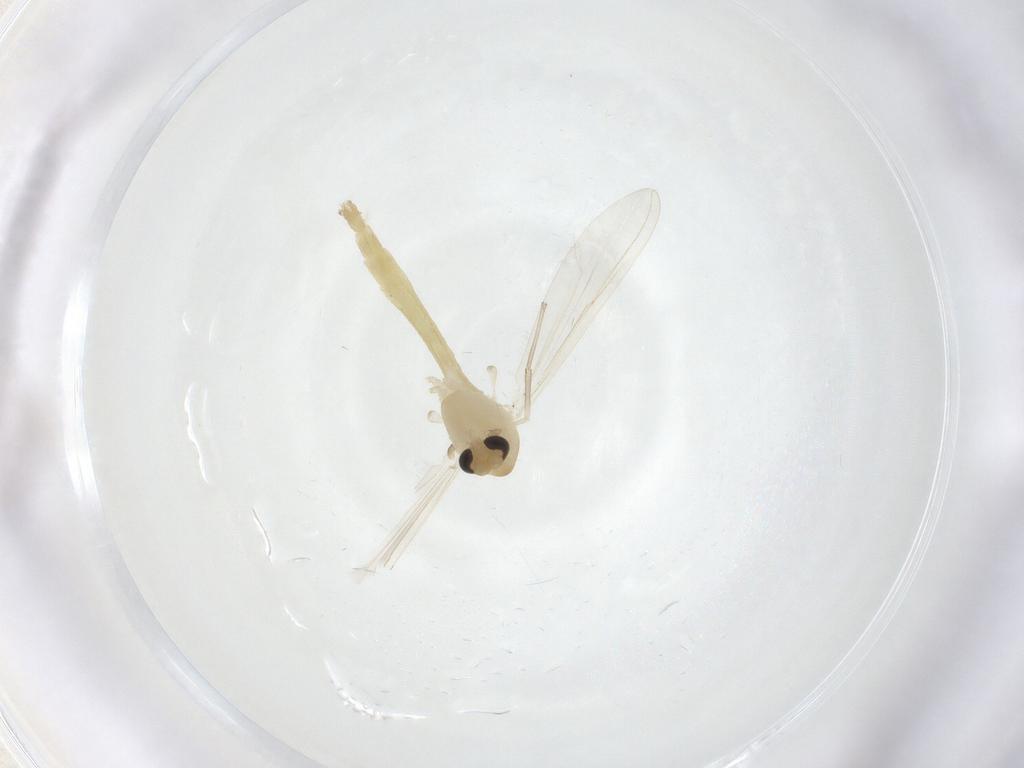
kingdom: Animalia
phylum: Arthropoda
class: Insecta
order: Diptera
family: Chironomidae
